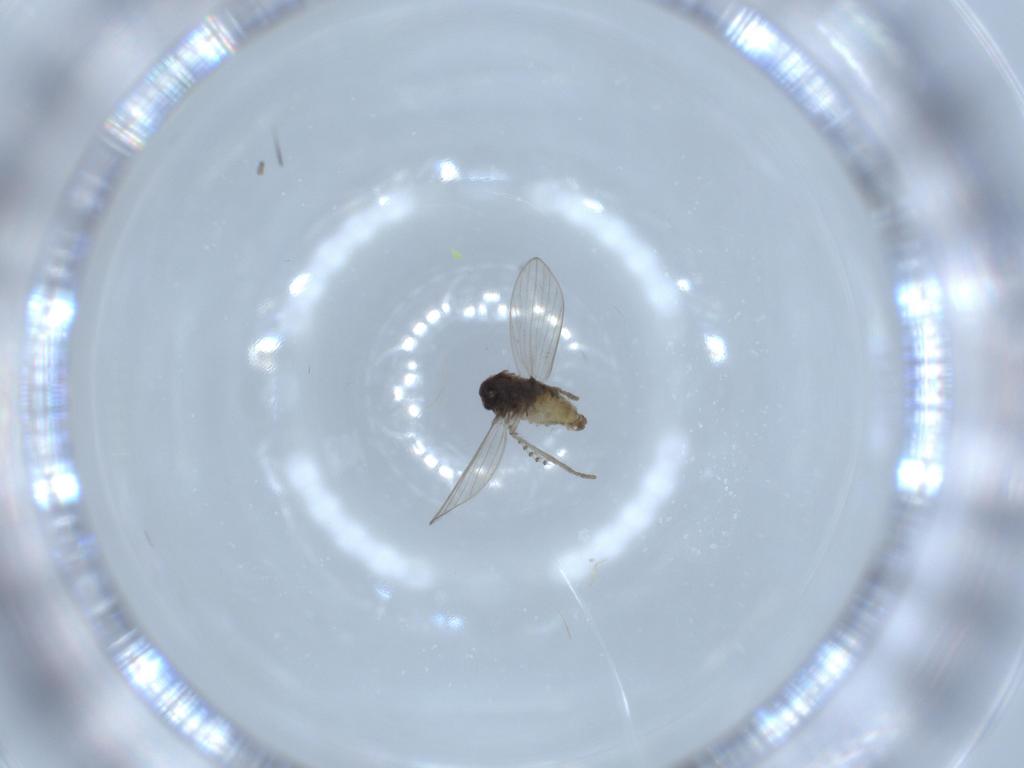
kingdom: Animalia
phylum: Arthropoda
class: Insecta
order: Diptera
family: Psychodidae
